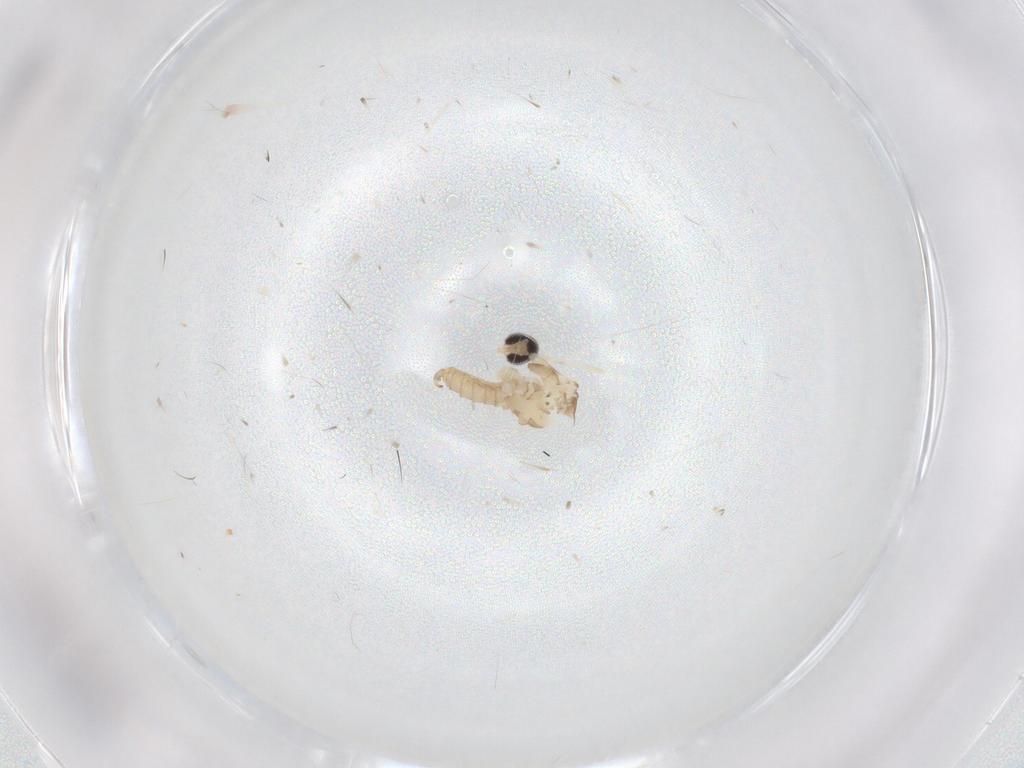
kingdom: Animalia
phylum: Arthropoda
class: Insecta
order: Diptera
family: Cecidomyiidae
